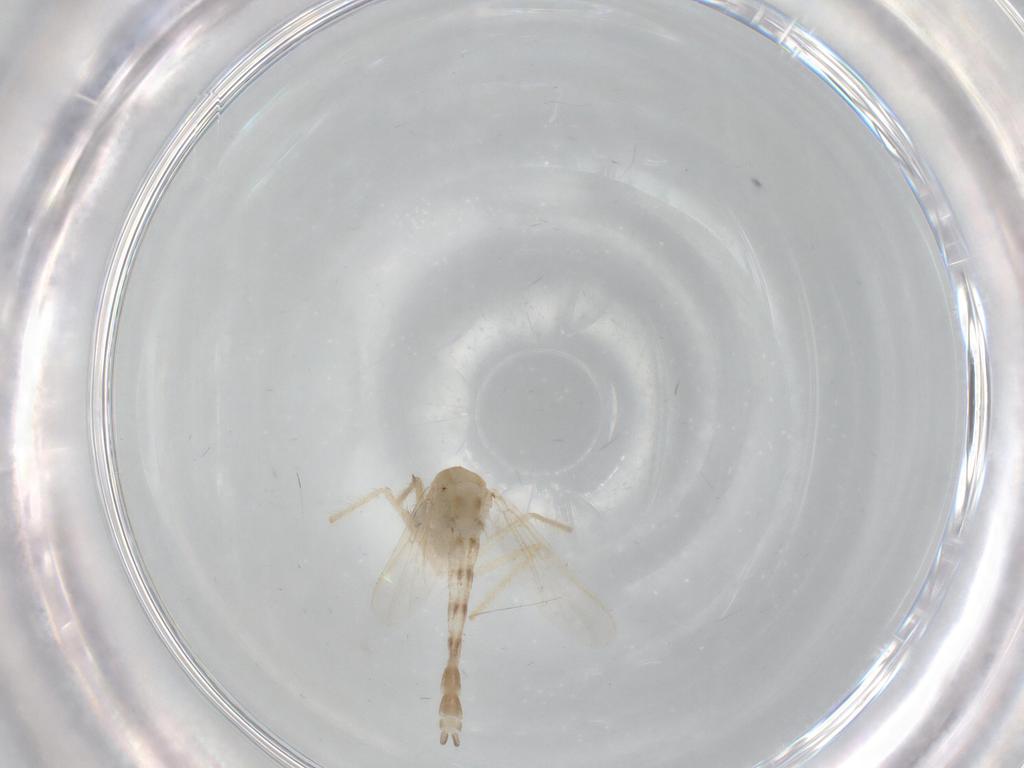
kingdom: Animalia
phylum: Arthropoda
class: Insecta
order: Diptera
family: Chironomidae
